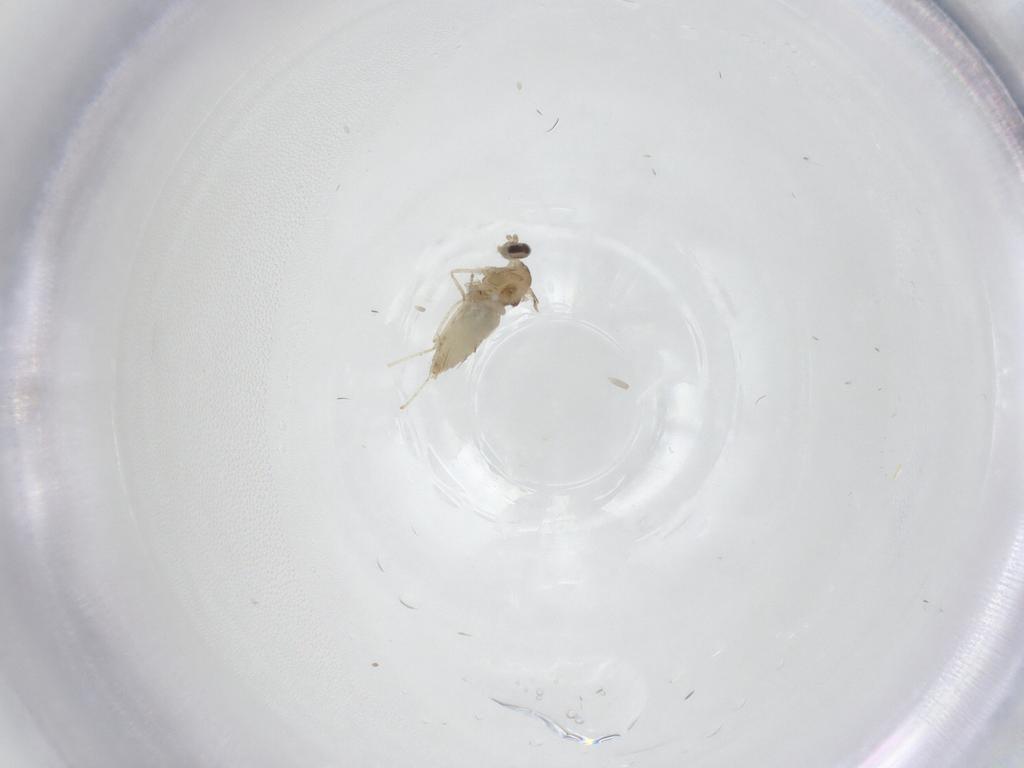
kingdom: Animalia
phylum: Arthropoda
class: Insecta
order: Diptera
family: Cecidomyiidae
